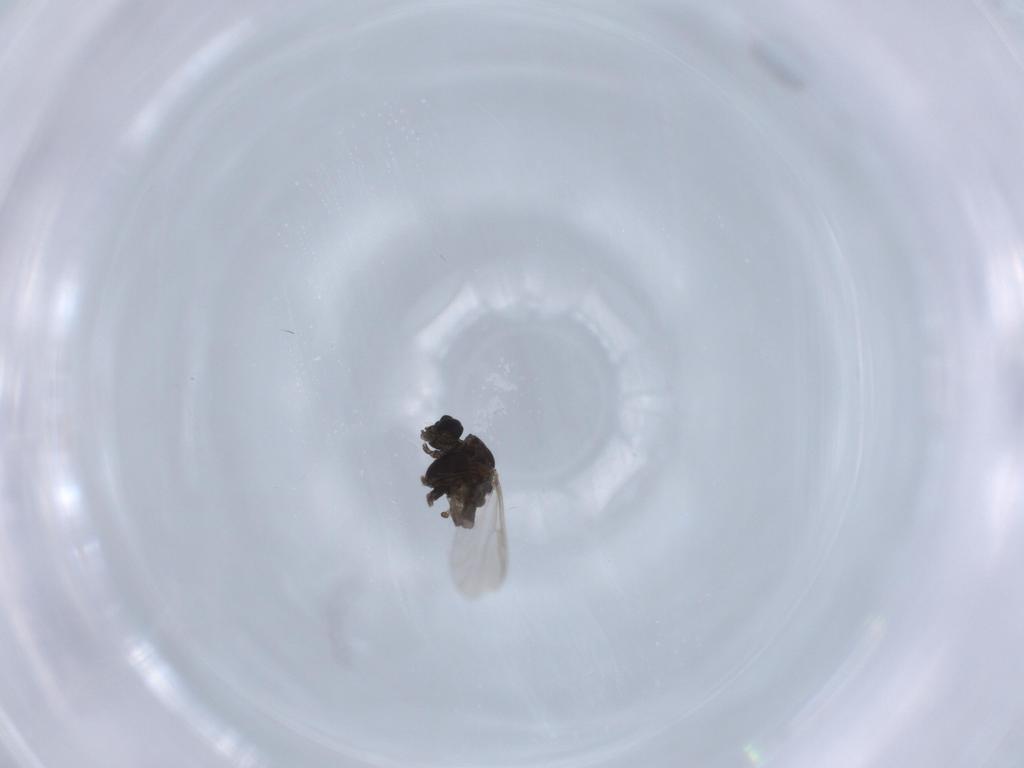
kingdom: Animalia
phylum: Arthropoda
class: Insecta
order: Diptera
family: Chironomidae
